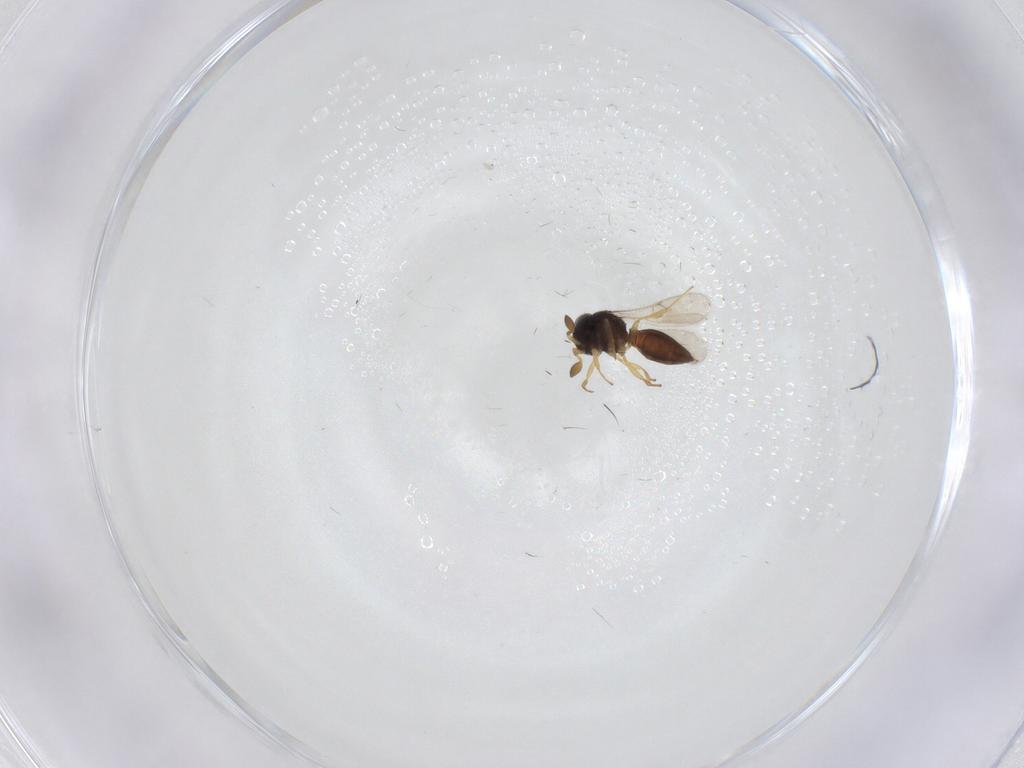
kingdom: Animalia
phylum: Arthropoda
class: Insecta
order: Hymenoptera
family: Scelionidae
